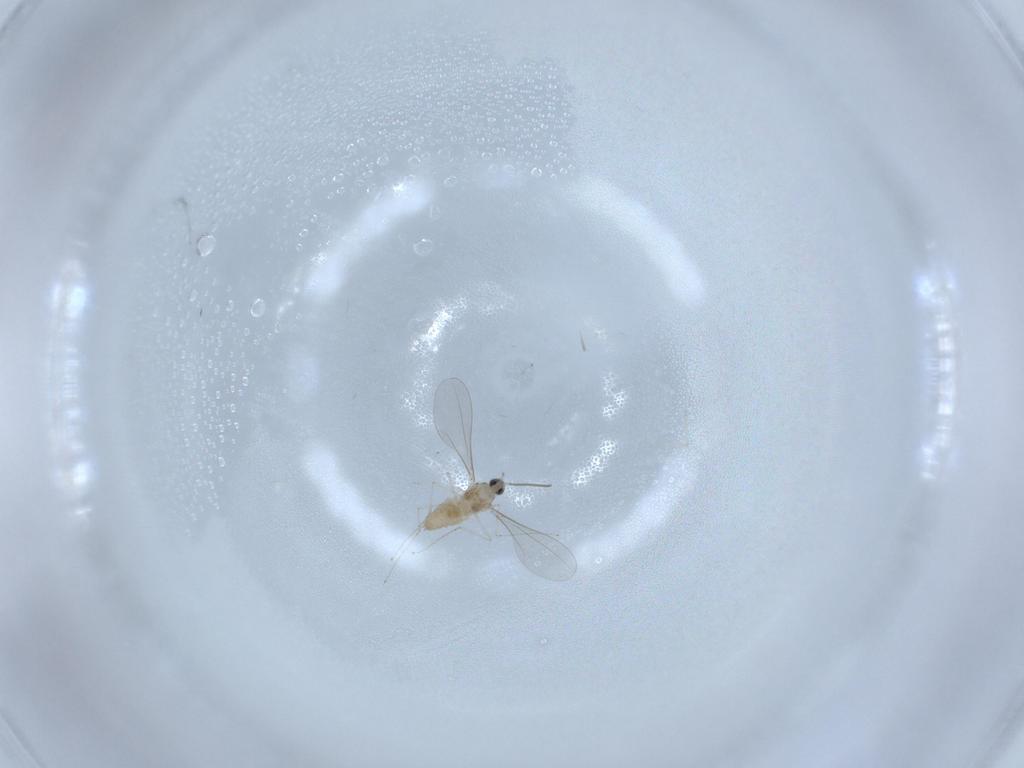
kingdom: Animalia
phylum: Arthropoda
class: Insecta
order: Diptera
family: Cecidomyiidae
